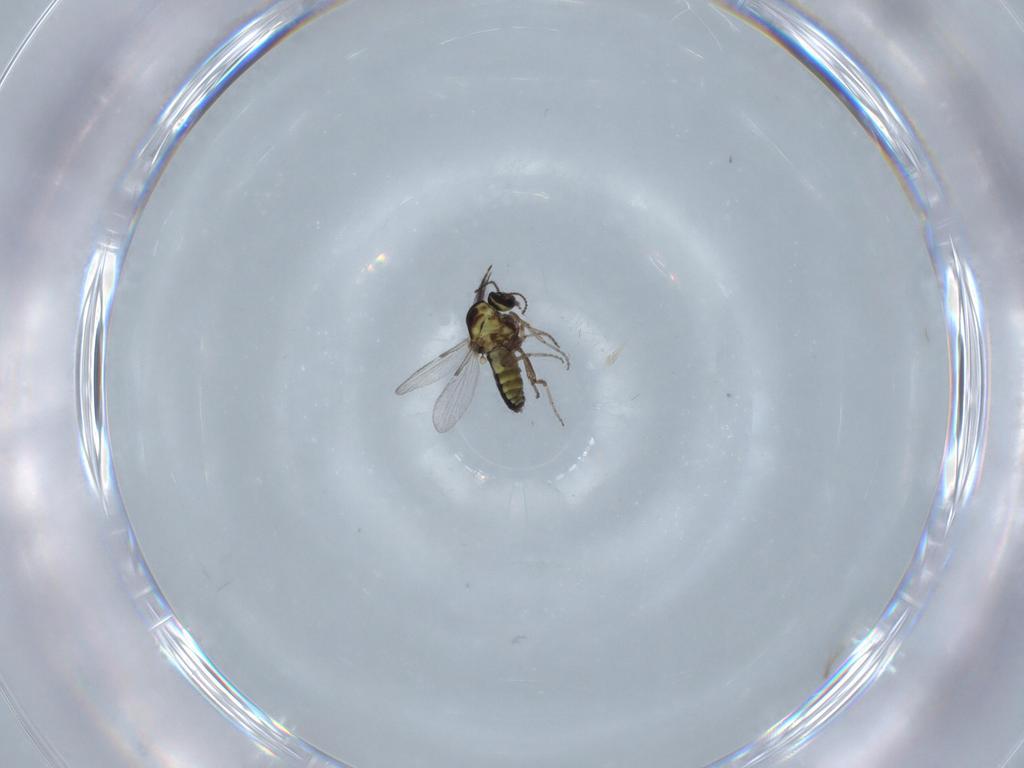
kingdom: Animalia
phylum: Arthropoda
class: Insecta
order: Diptera
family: Ceratopogonidae
